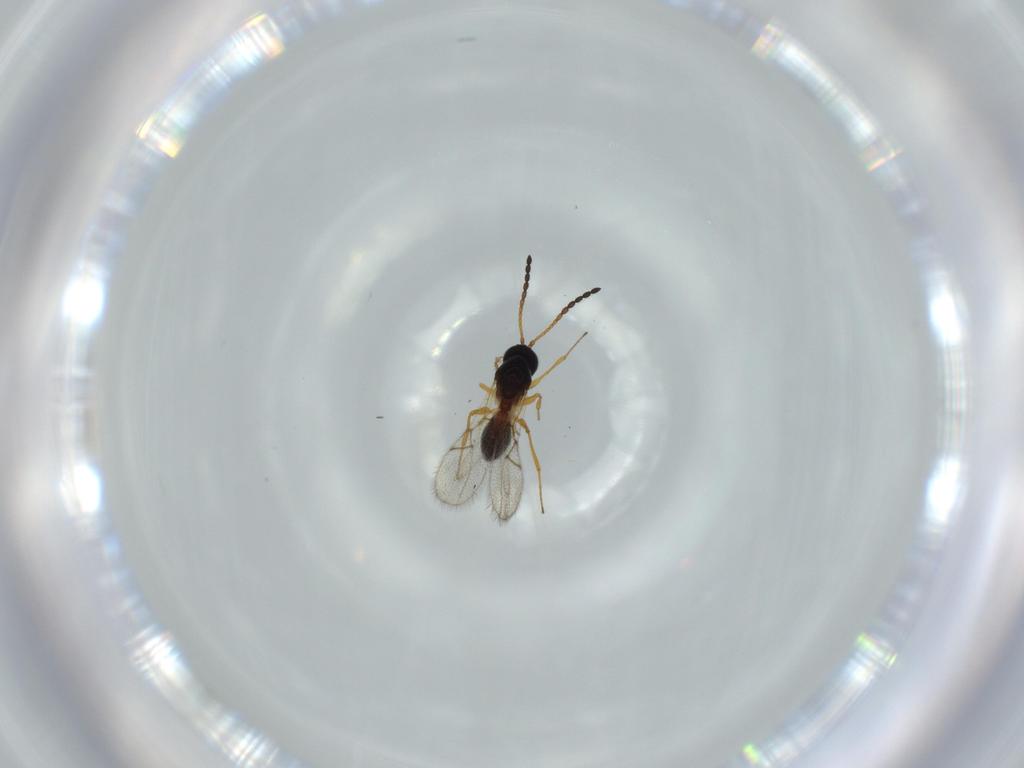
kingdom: Animalia
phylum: Arthropoda
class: Insecta
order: Hymenoptera
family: Figitidae
